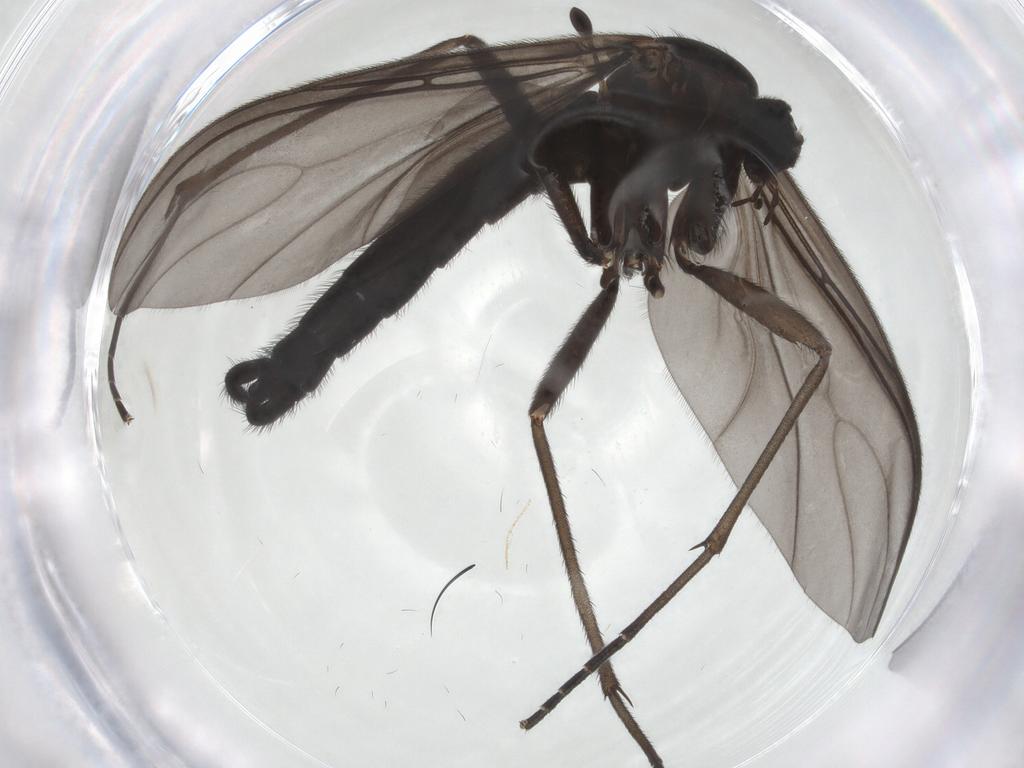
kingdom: Animalia
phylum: Arthropoda
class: Insecta
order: Diptera
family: Sciaridae
